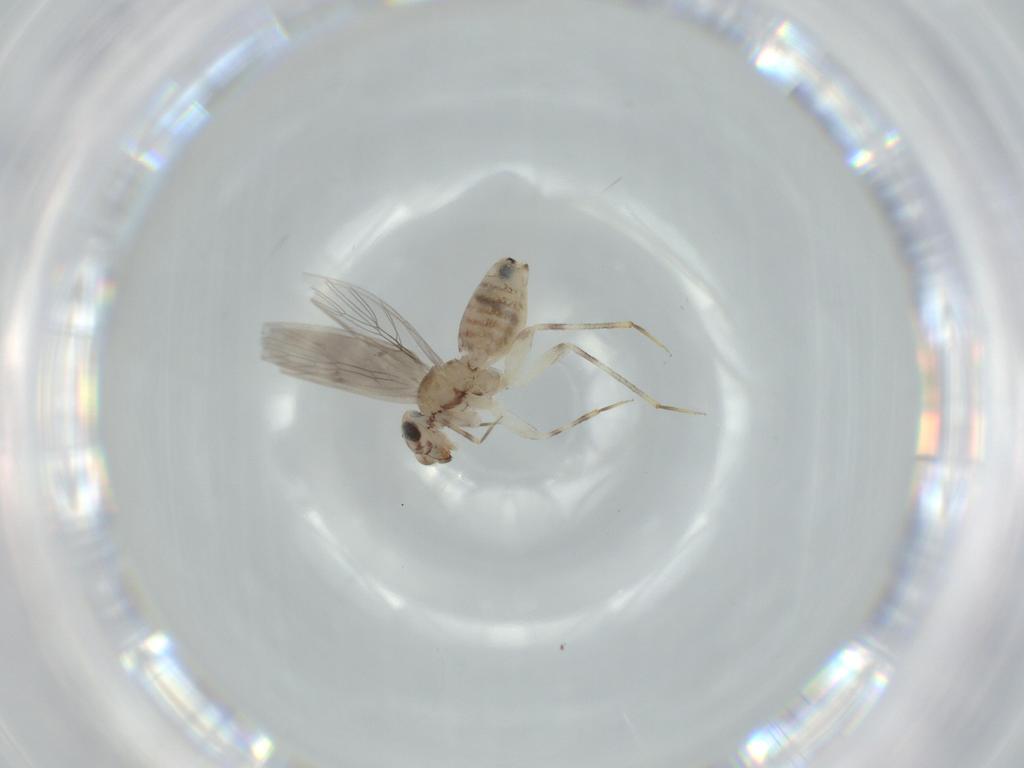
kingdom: Animalia
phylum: Arthropoda
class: Insecta
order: Psocodea
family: Lepidopsocidae
